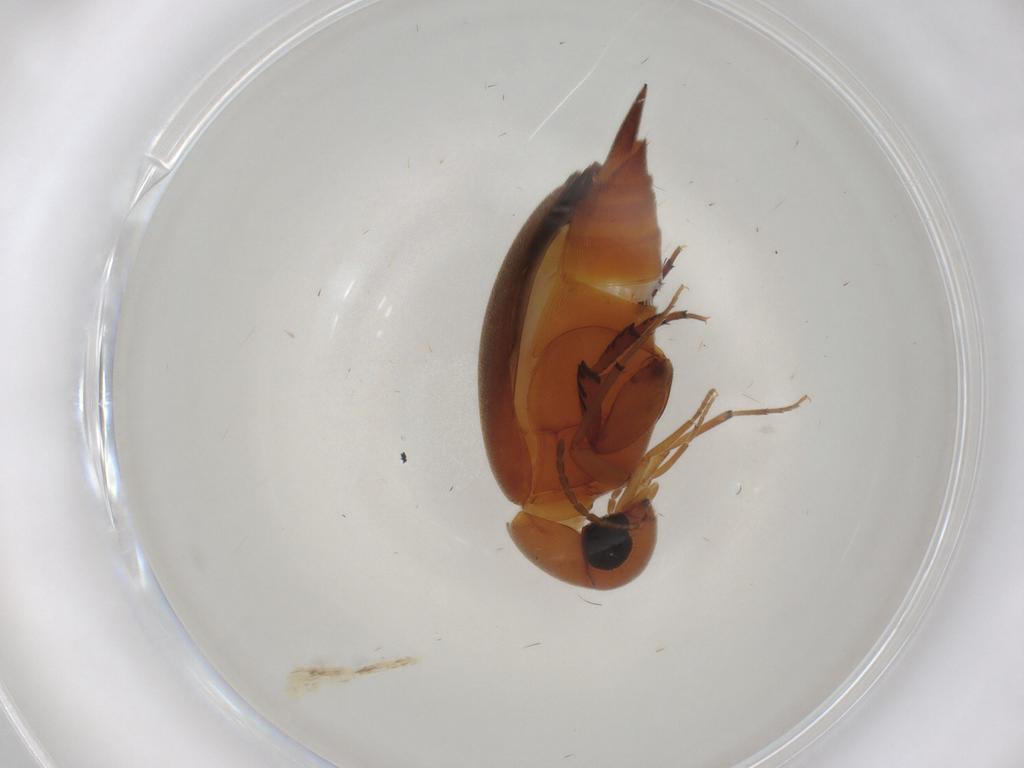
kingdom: Animalia
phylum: Arthropoda
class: Insecta
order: Coleoptera
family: Mordellidae
